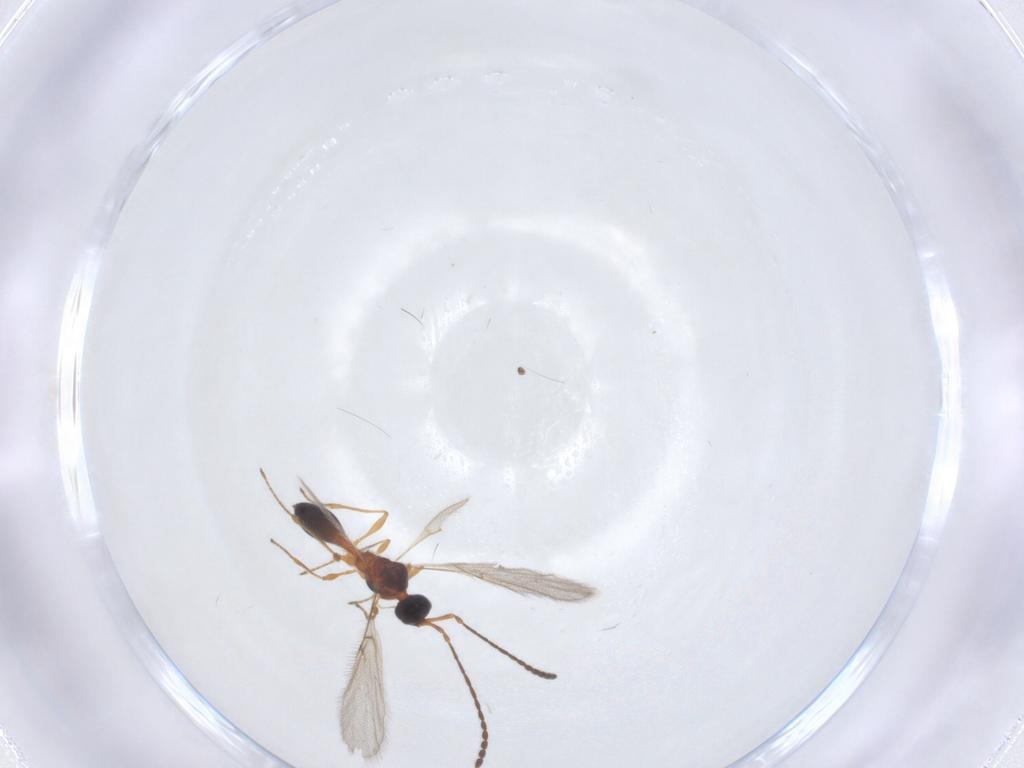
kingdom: Animalia
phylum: Arthropoda
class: Insecta
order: Hymenoptera
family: Diapriidae
